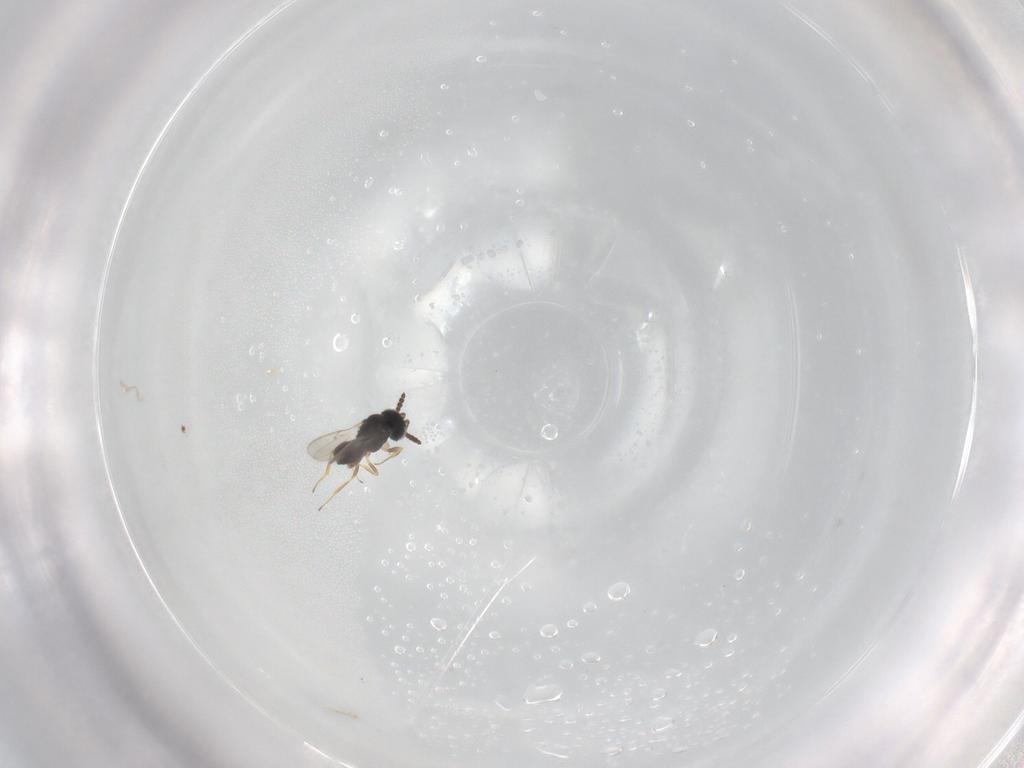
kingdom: Animalia
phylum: Arthropoda
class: Insecta
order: Hymenoptera
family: Scelionidae
